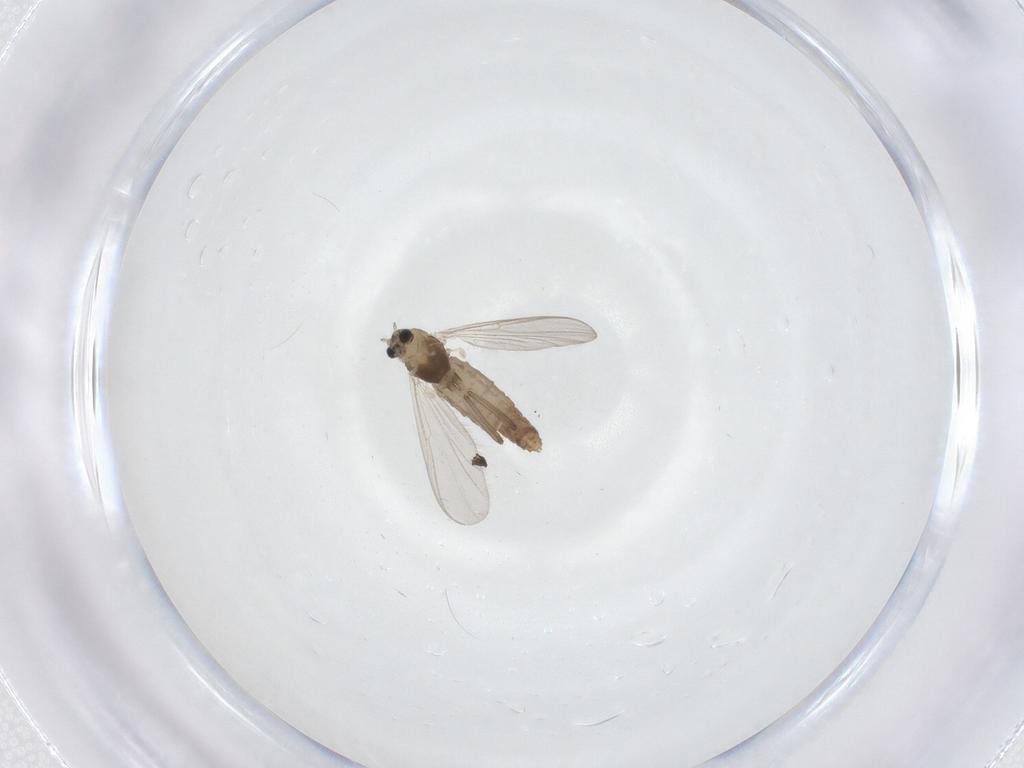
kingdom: Animalia
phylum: Arthropoda
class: Insecta
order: Diptera
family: Chironomidae
